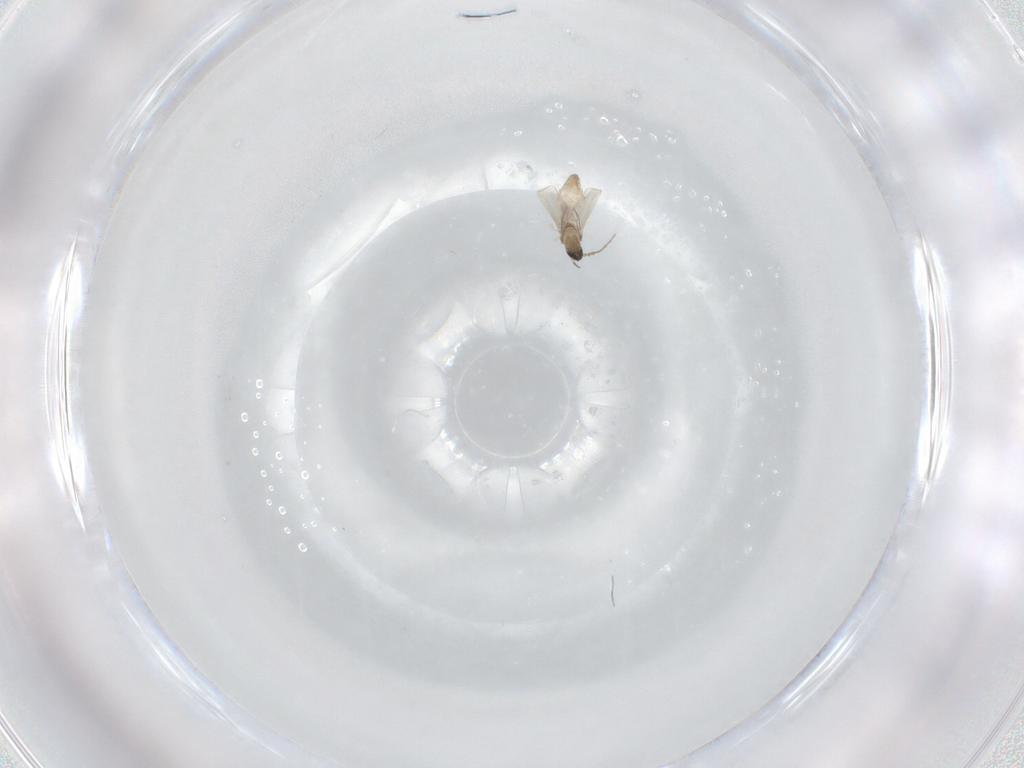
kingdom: Animalia
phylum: Arthropoda
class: Insecta
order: Diptera
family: Cecidomyiidae
